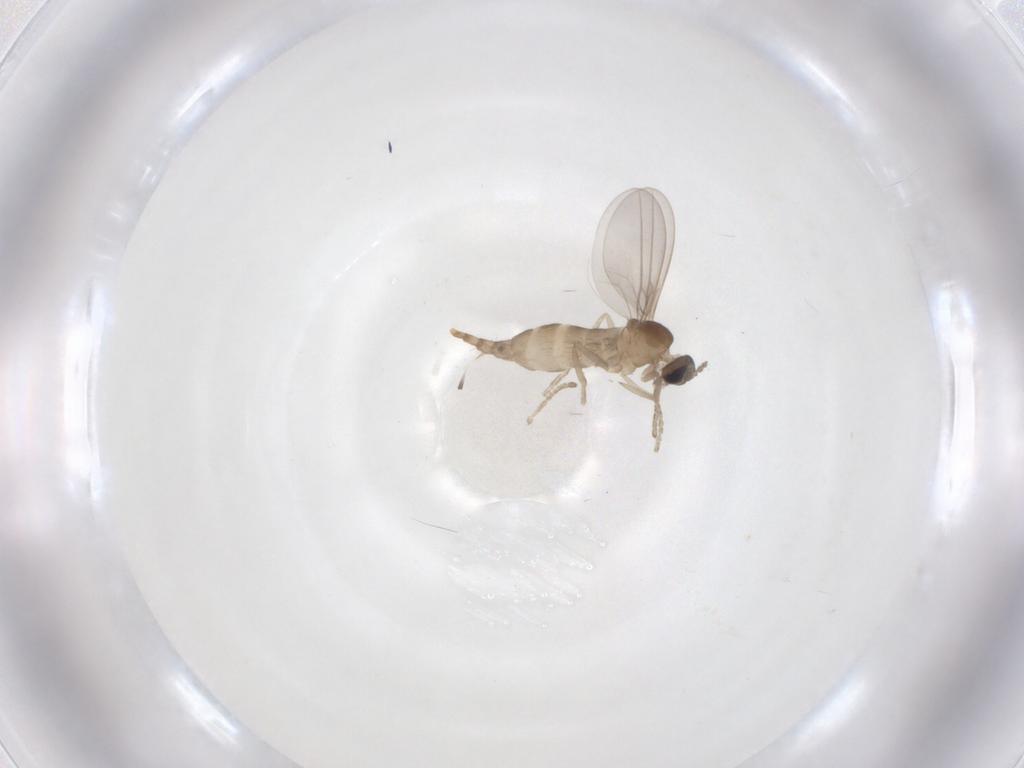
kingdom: Animalia
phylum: Arthropoda
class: Insecta
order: Diptera
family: Cecidomyiidae
